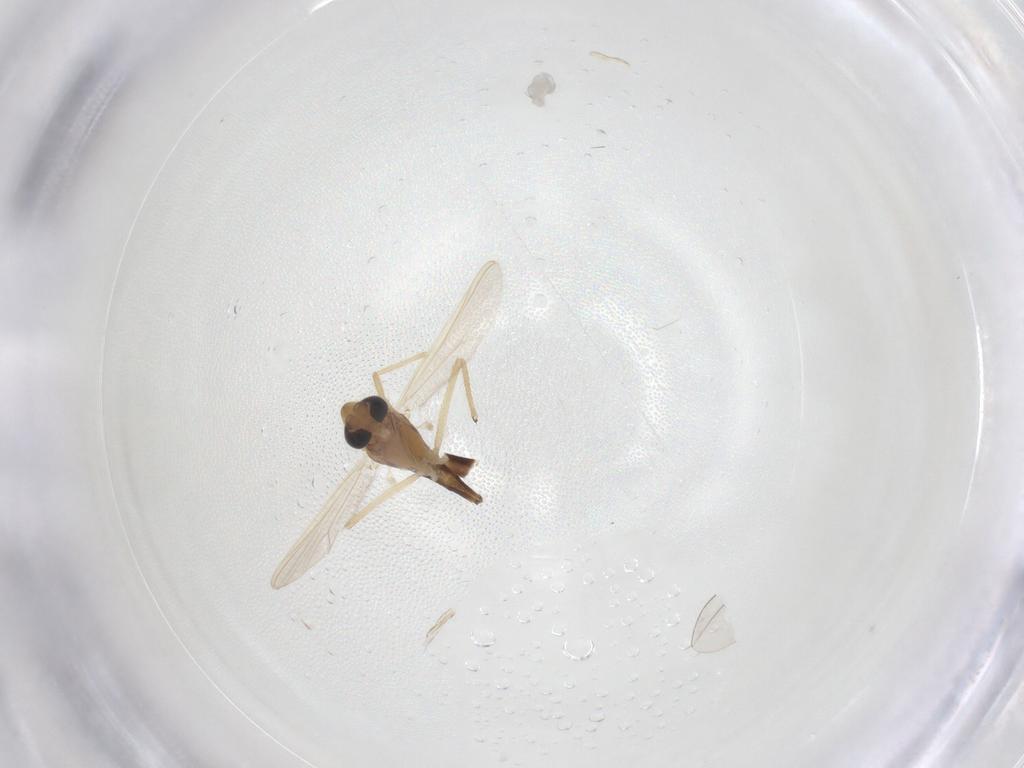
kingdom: Animalia
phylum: Arthropoda
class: Insecta
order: Diptera
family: Chironomidae
